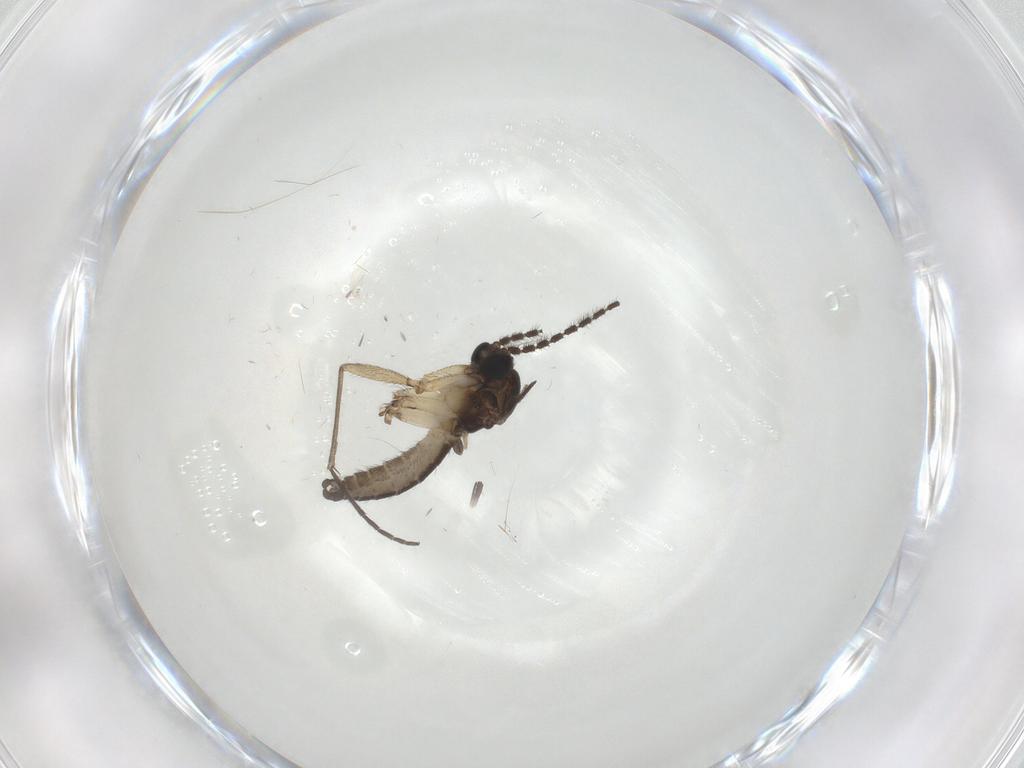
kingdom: Animalia
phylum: Arthropoda
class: Insecta
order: Diptera
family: Sciaridae
